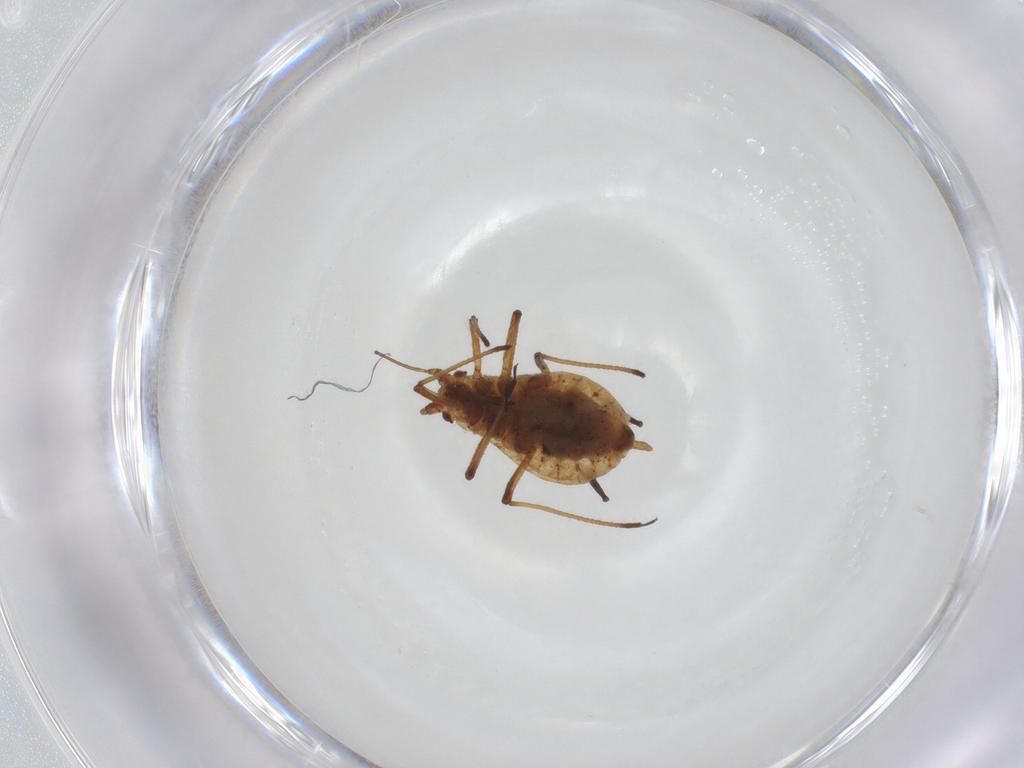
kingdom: Animalia
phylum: Arthropoda
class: Insecta
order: Hemiptera
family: Aphididae
